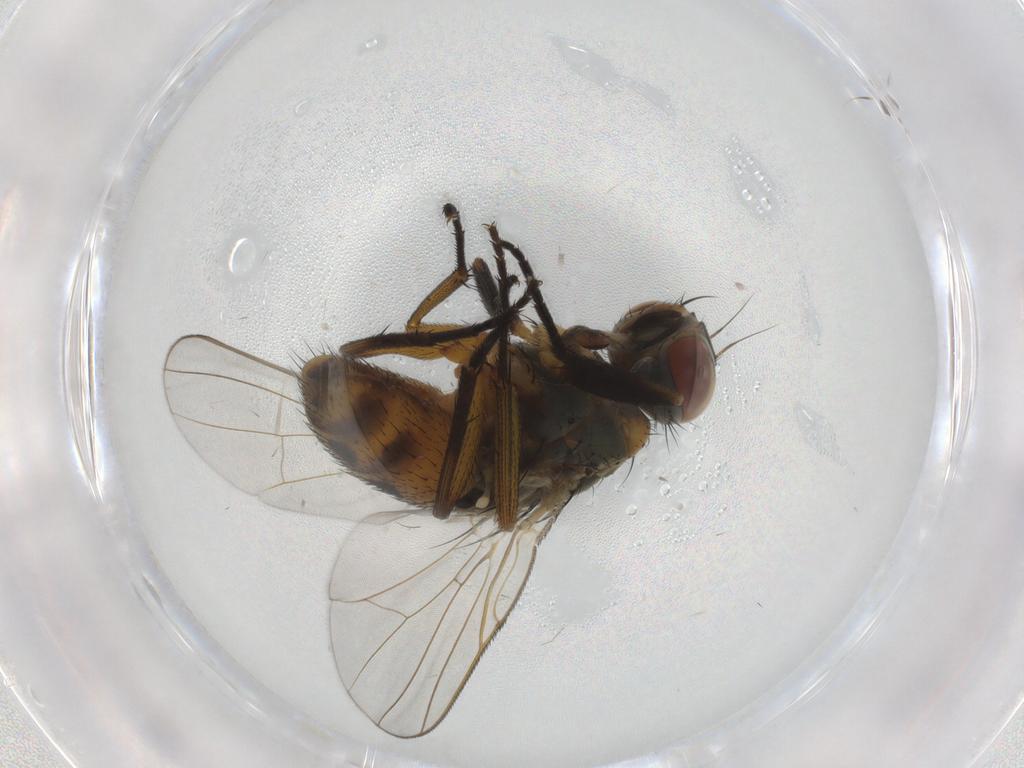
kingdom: Animalia
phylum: Arthropoda
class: Insecta
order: Diptera
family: Muscidae
